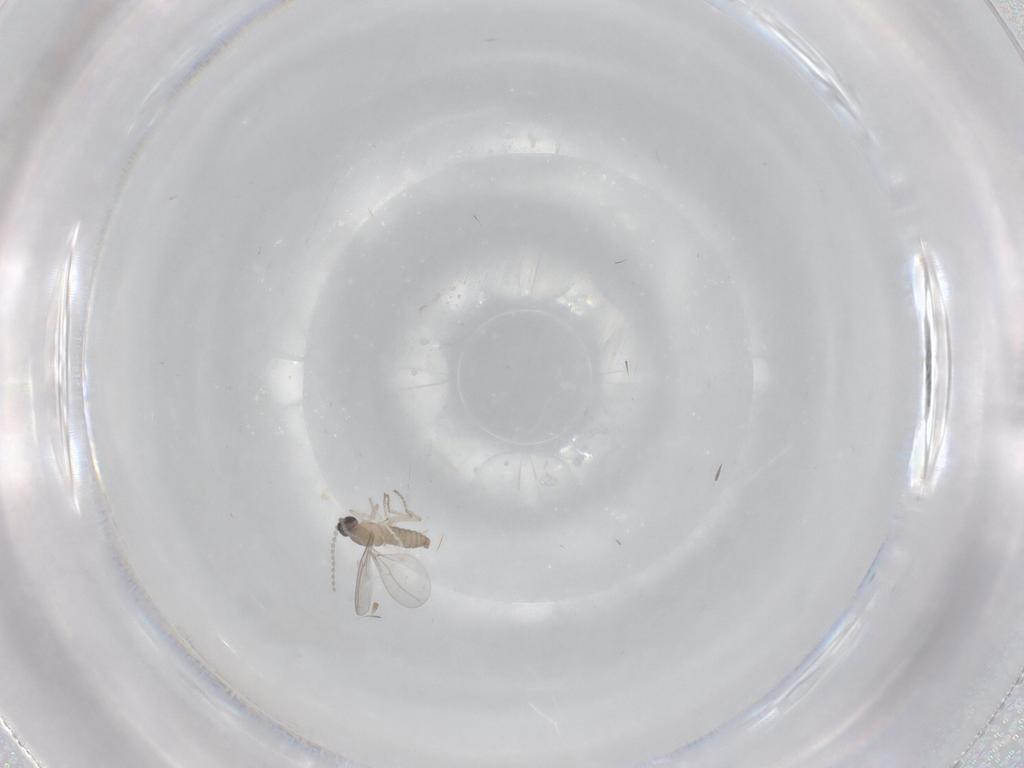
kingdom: Animalia
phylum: Arthropoda
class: Insecta
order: Diptera
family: Cecidomyiidae
